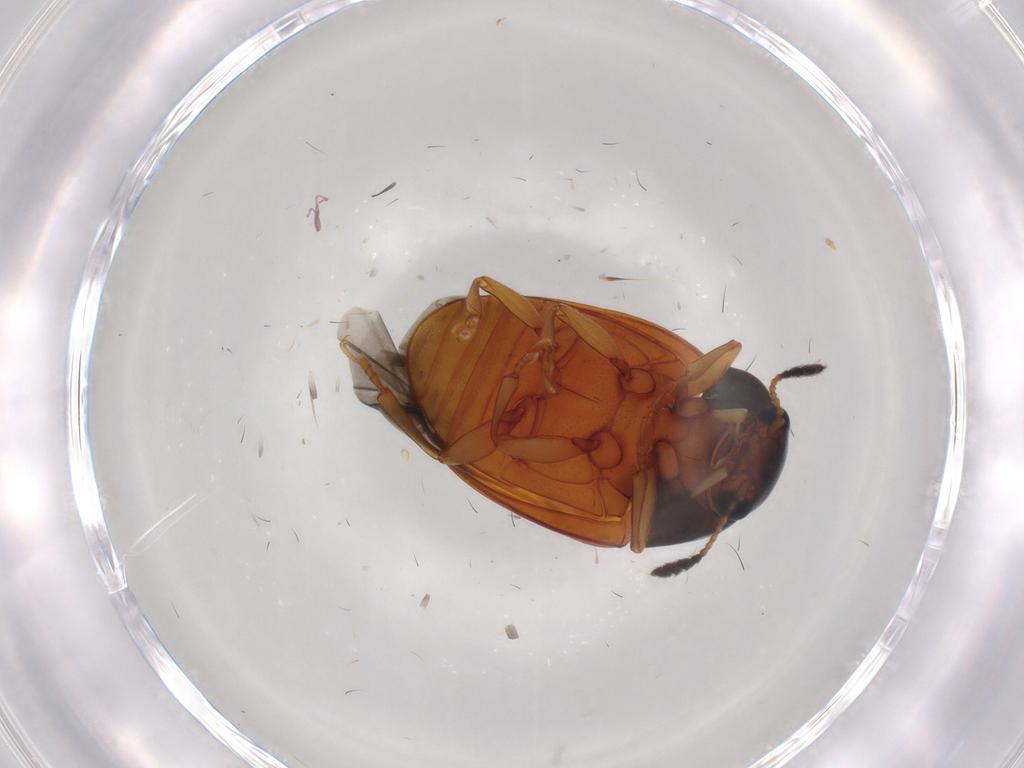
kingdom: Animalia
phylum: Arthropoda
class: Insecta
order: Coleoptera
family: Erotylidae
